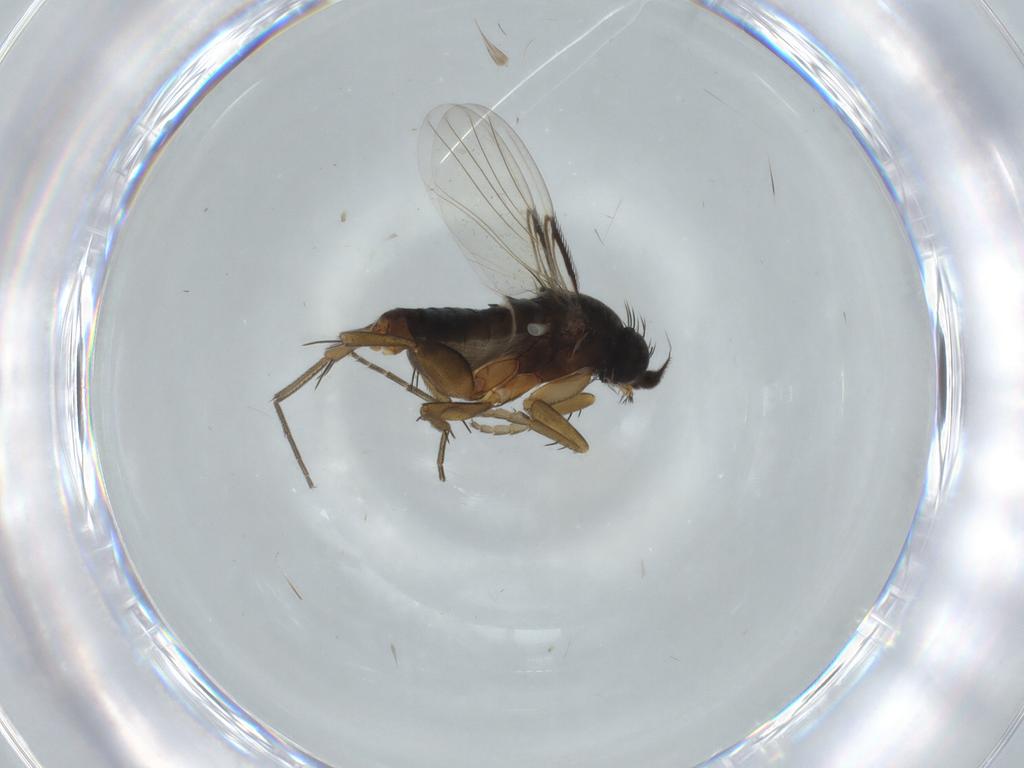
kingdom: Animalia
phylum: Arthropoda
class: Insecta
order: Diptera
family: Phoridae
